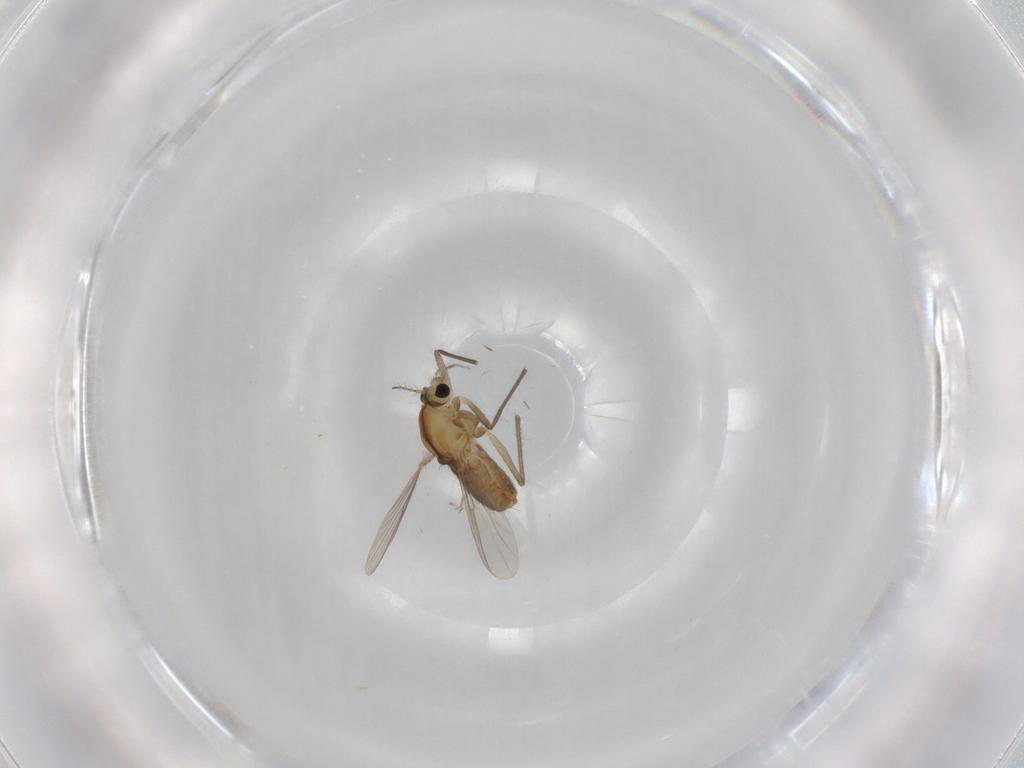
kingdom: Animalia
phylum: Arthropoda
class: Insecta
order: Diptera
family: Chironomidae
